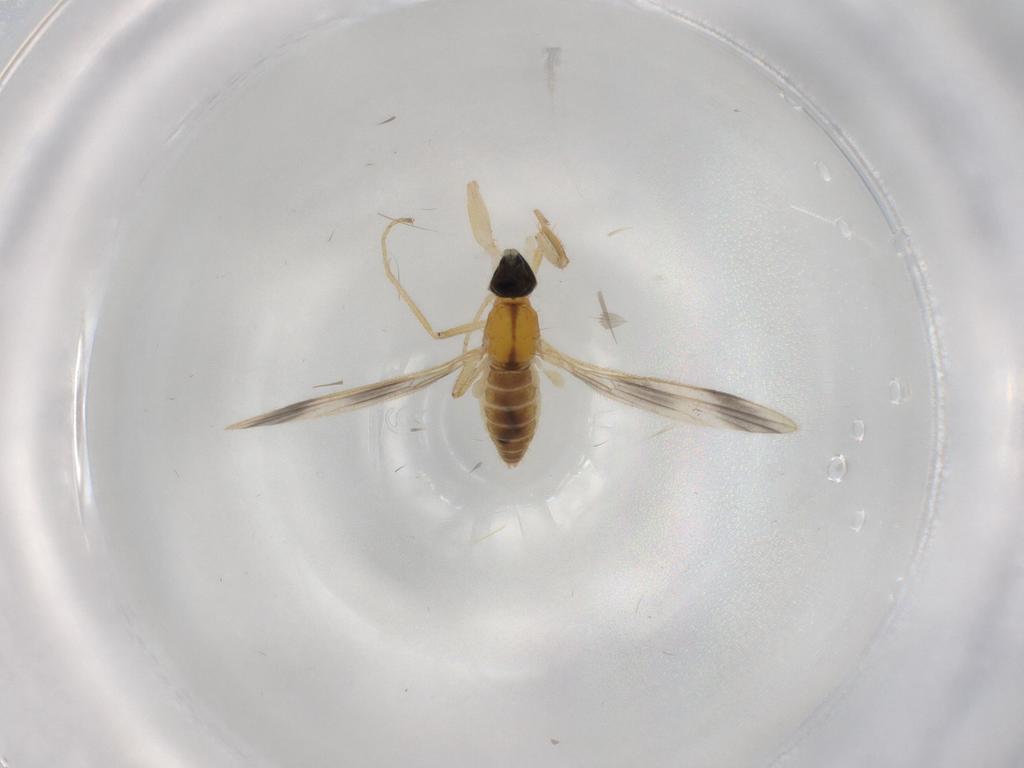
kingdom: Animalia
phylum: Arthropoda
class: Insecta
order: Diptera
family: Empididae
